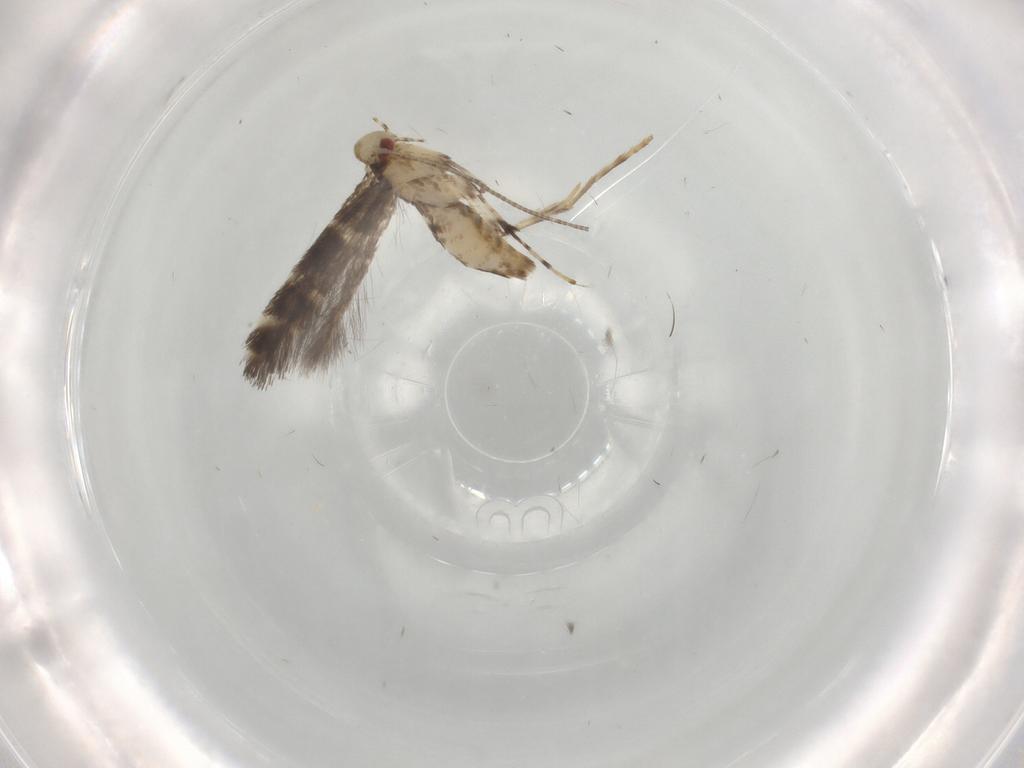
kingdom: Animalia
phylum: Arthropoda
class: Insecta
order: Lepidoptera
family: Gracillariidae
